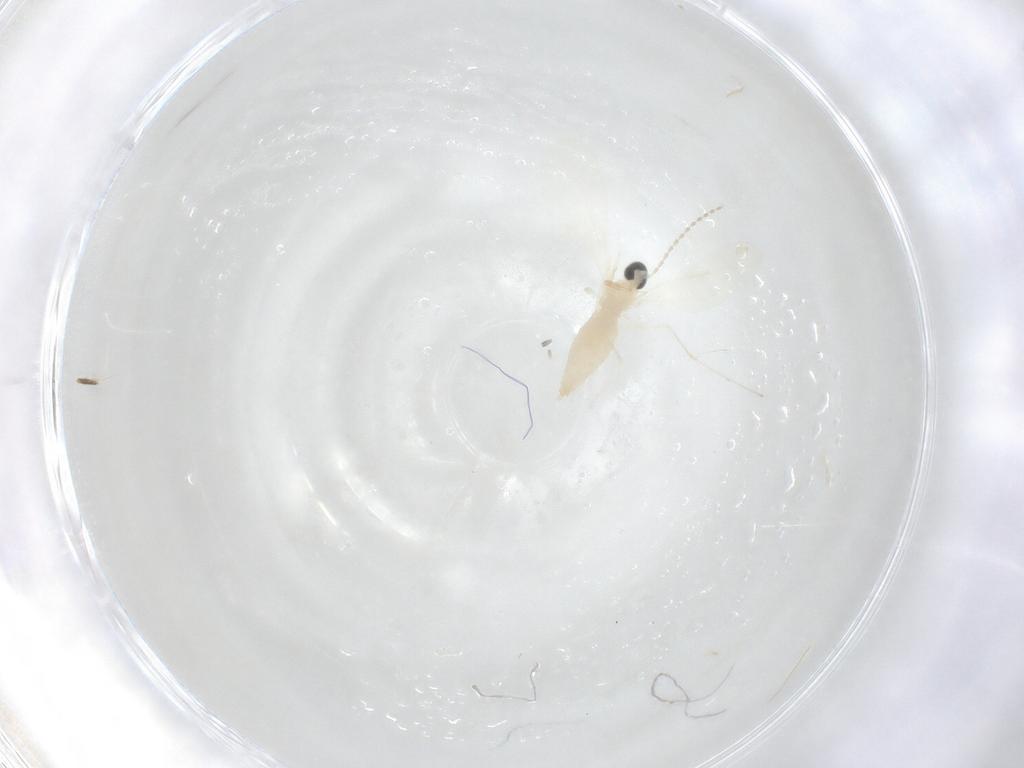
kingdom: Animalia
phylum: Arthropoda
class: Insecta
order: Diptera
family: Cecidomyiidae
